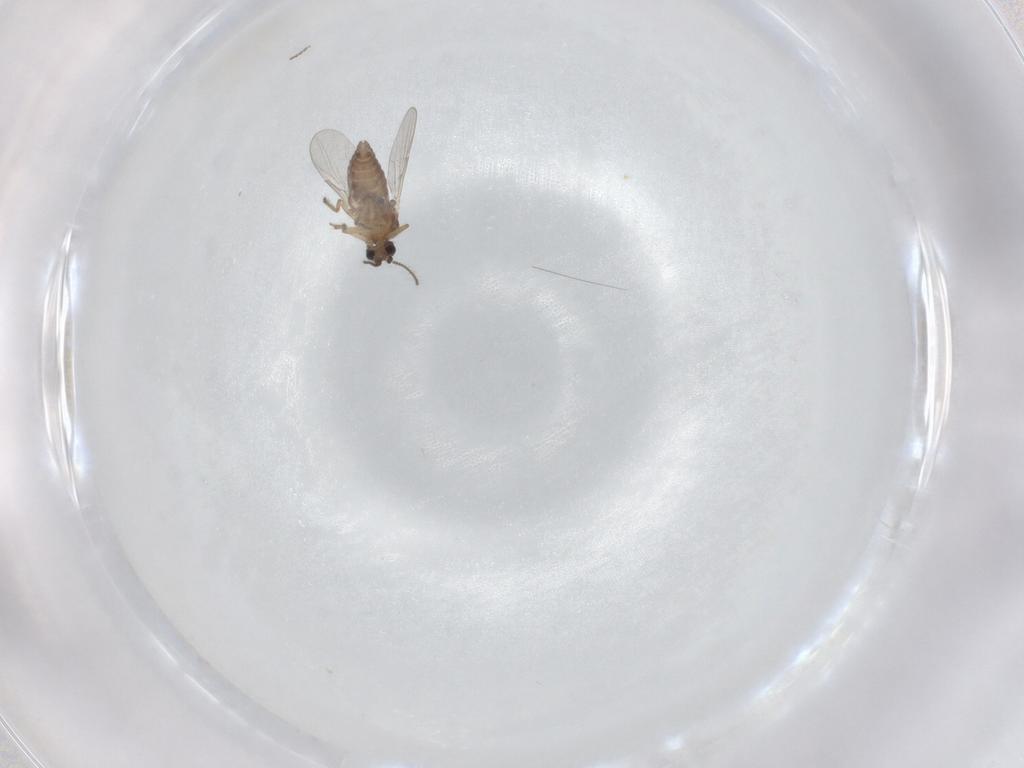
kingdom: Animalia
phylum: Arthropoda
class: Insecta
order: Diptera
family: Ceratopogonidae
